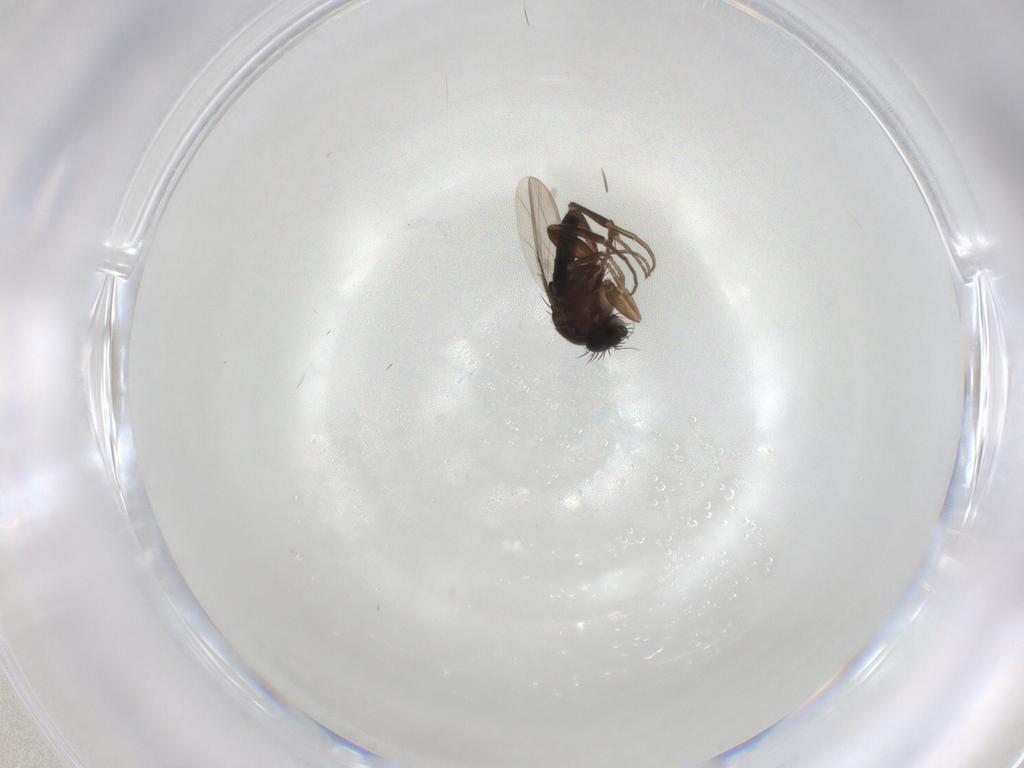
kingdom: Animalia
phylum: Arthropoda
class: Insecta
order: Diptera
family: Phoridae
